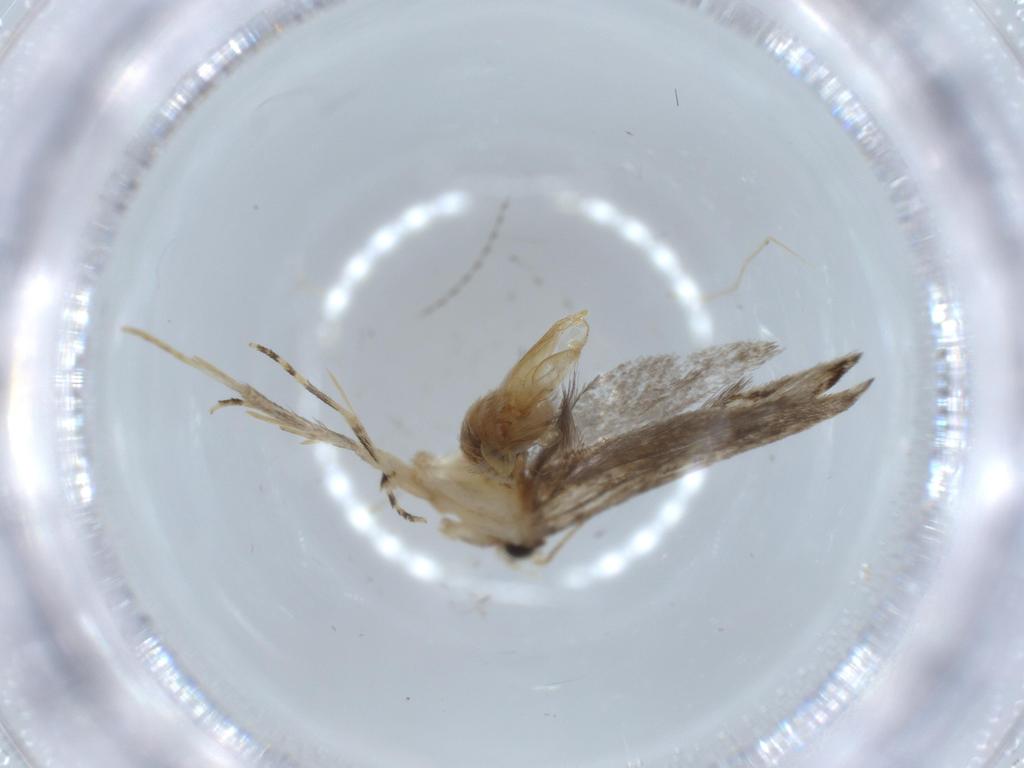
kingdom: Animalia
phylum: Arthropoda
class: Insecta
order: Lepidoptera
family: Tineidae
